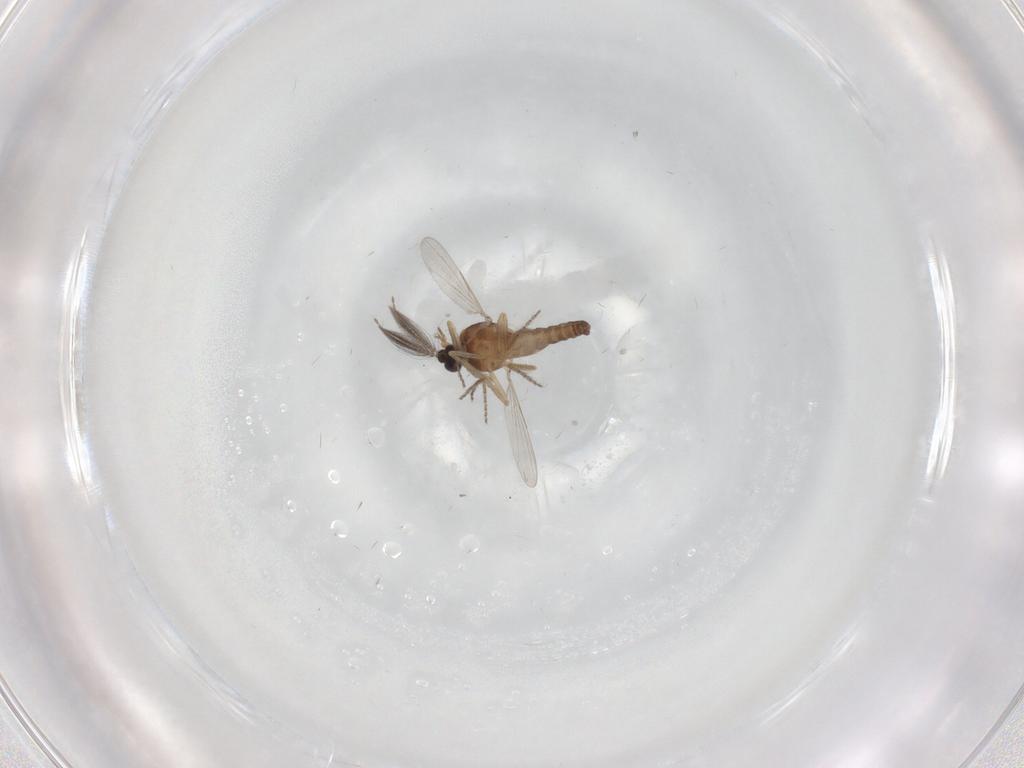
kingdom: Animalia
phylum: Arthropoda
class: Insecta
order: Diptera
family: Ceratopogonidae
